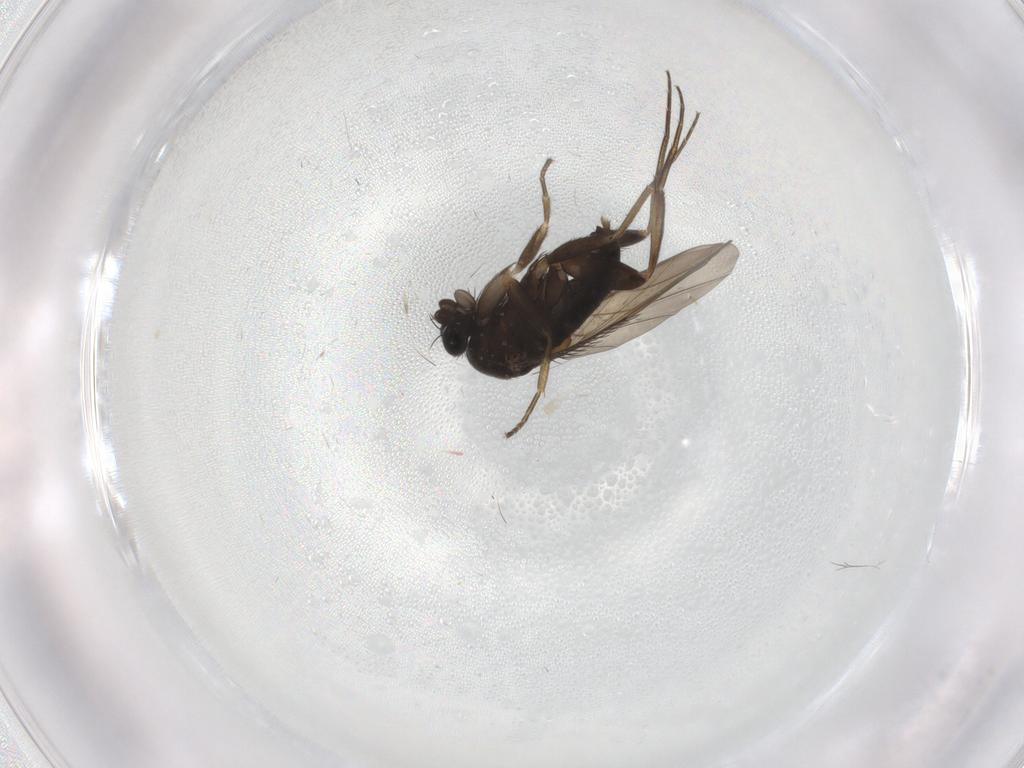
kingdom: Animalia
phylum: Arthropoda
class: Insecta
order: Diptera
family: Phoridae
